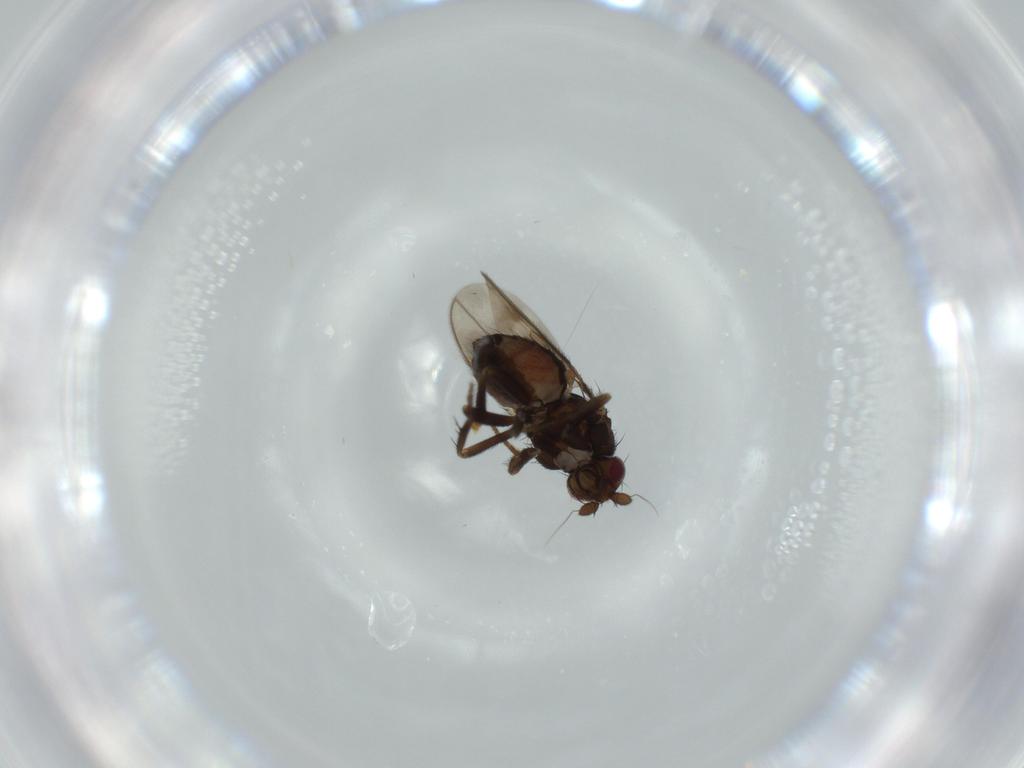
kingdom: Animalia
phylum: Arthropoda
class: Insecta
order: Diptera
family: Sphaeroceridae
